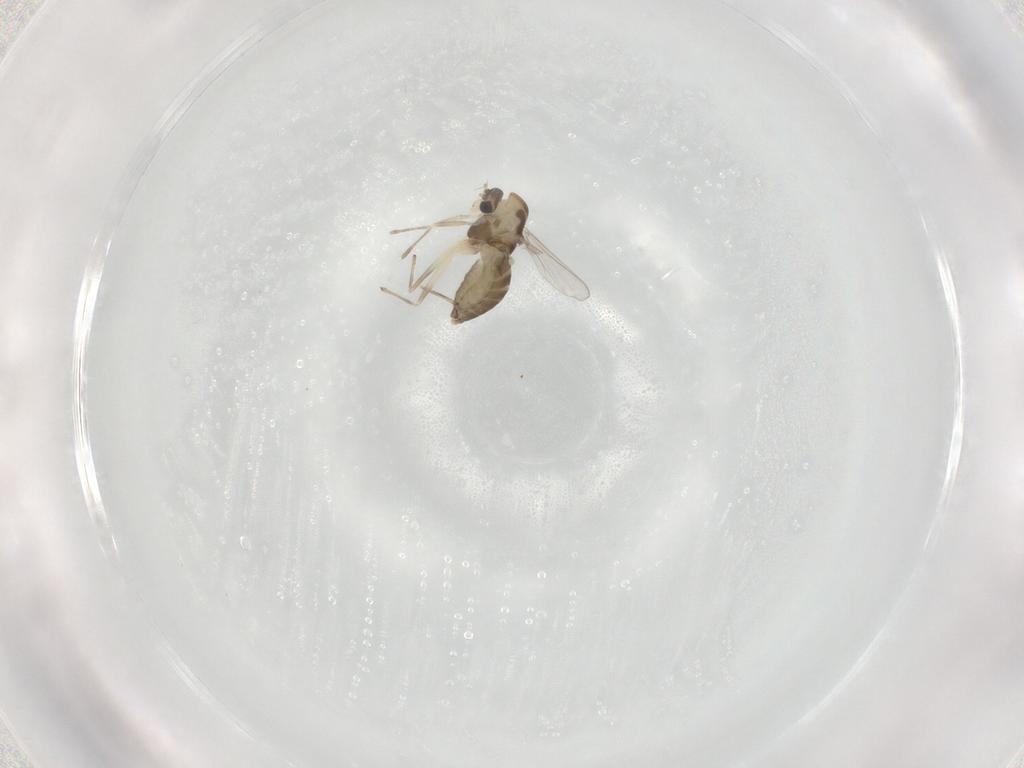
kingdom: Animalia
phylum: Arthropoda
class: Insecta
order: Diptera
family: Chironomidae
